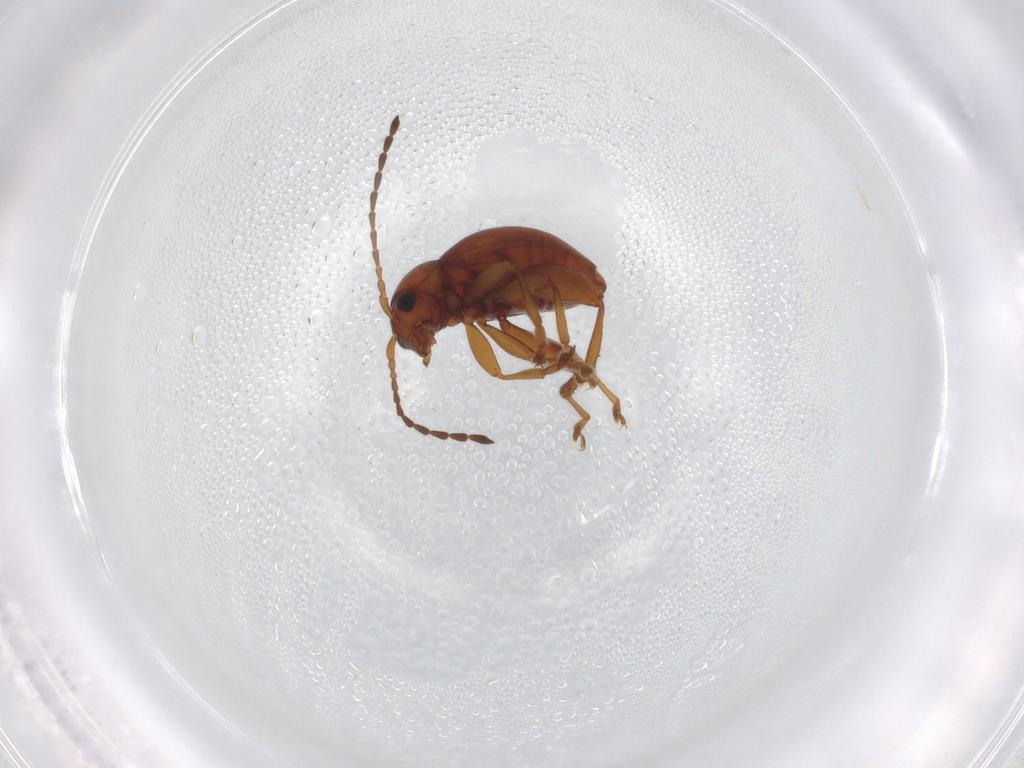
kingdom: Animalia
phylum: Arthropoda
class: Insecta
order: Coleoptera
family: Chrysomelidae
